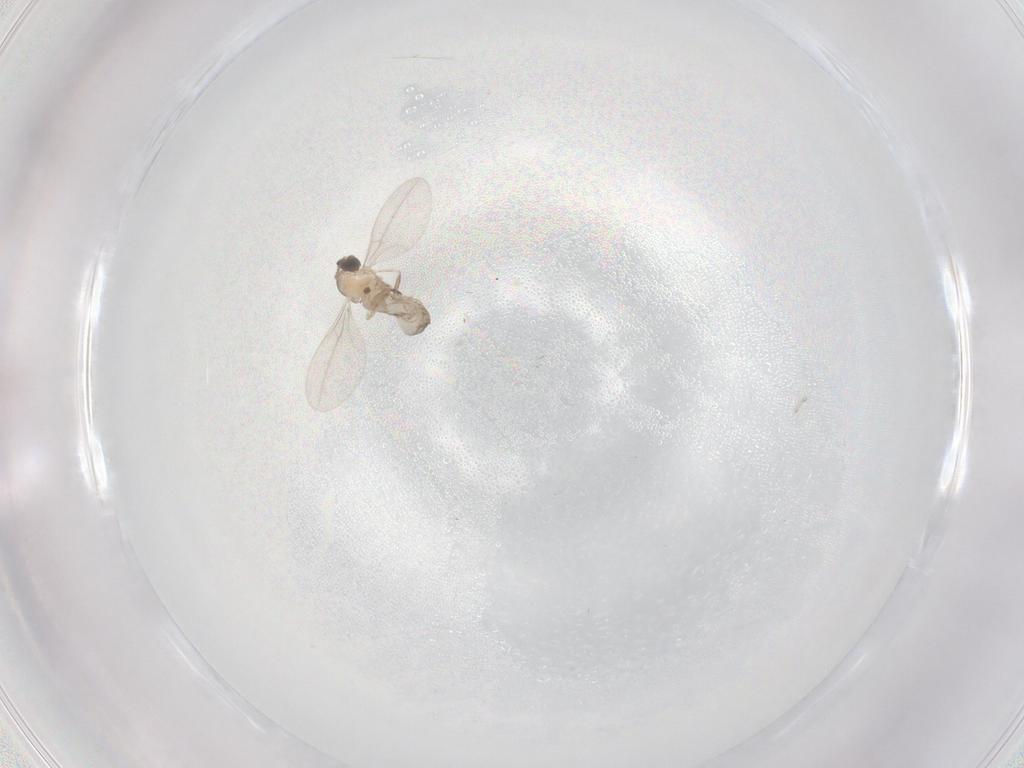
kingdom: Animalia
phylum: Arthropoda
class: Insecta
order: Diptera
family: Cecidomyiidae
